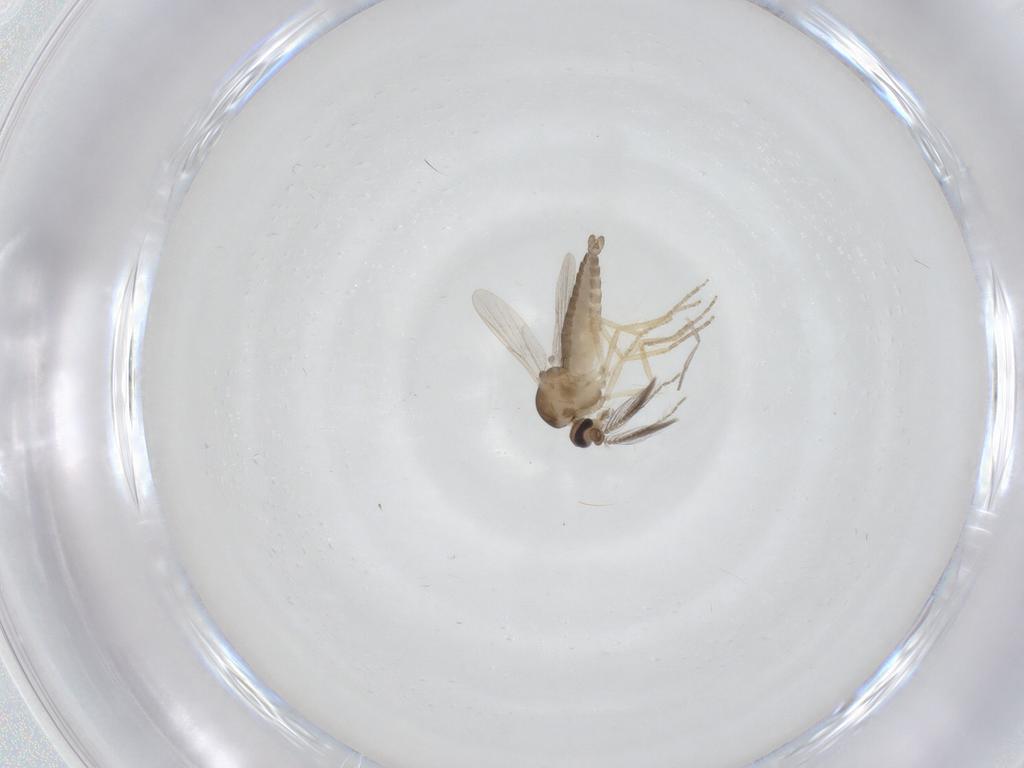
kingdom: Animalia
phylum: Arthropoda
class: Insecta
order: Diptera
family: Ceratopogonidae
